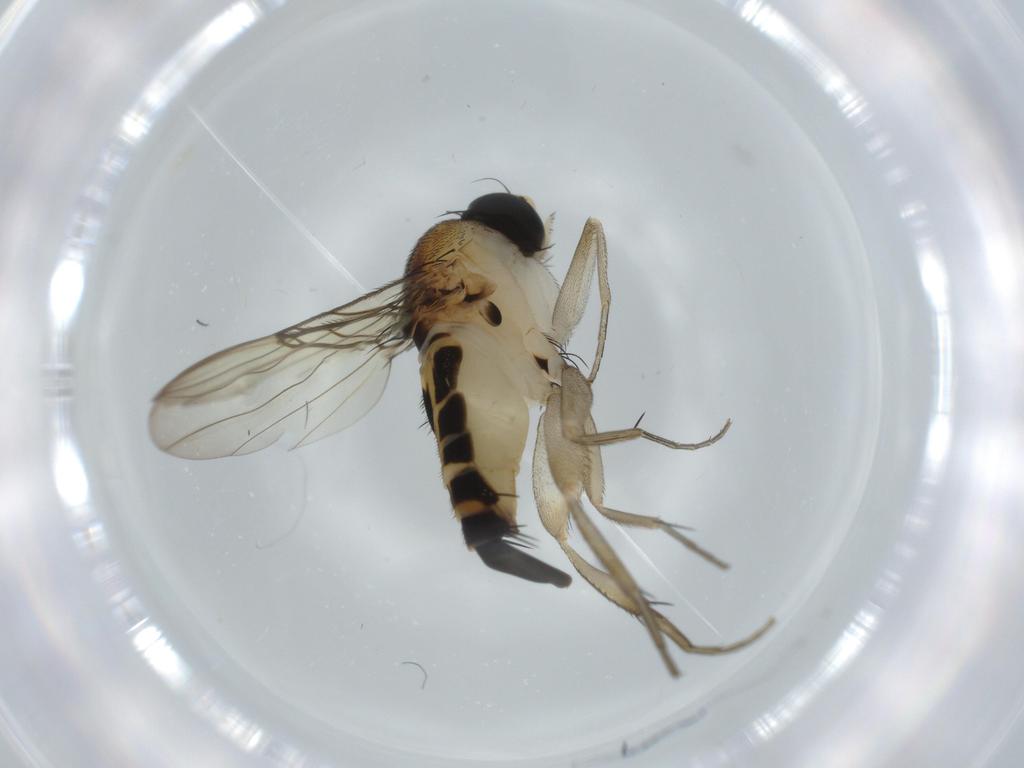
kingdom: Animalia
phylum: Arthropoda
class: Insecta
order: Diptera
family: Phoridae
